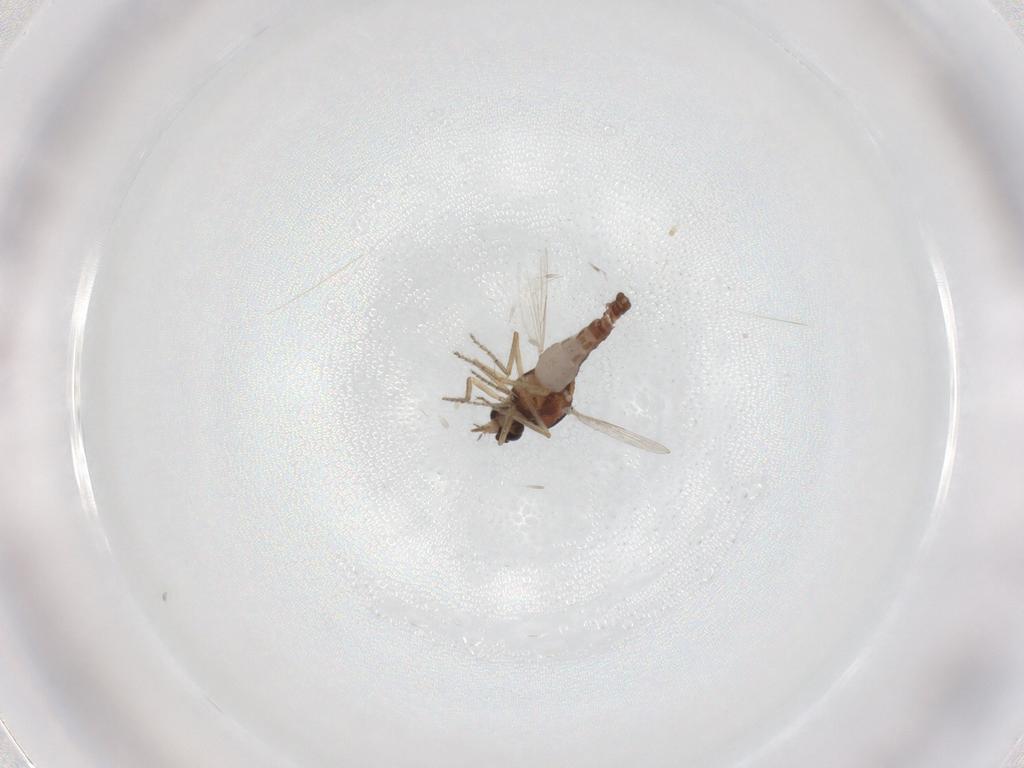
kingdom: Animalia
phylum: Arthropoda
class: Insecta
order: Diptera
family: Ceratopogonidae
